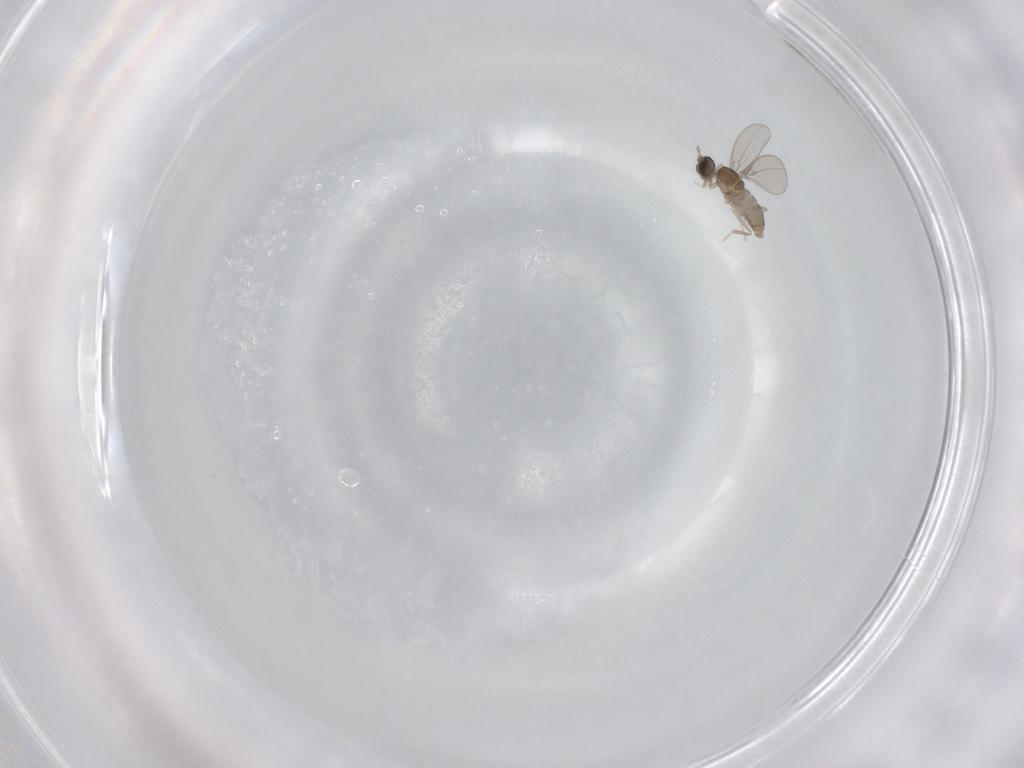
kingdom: Animalia
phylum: Arthropoda
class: Insecta
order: Diptera
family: Cecidomyiidae
